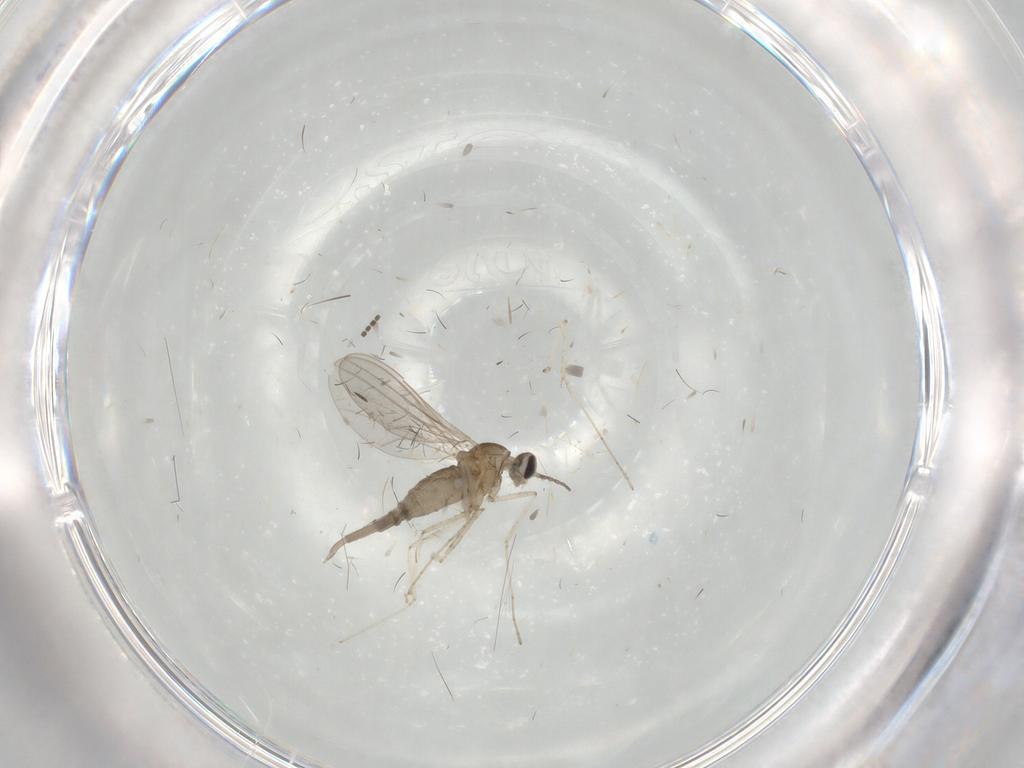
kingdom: Animalia
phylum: Arthropoda
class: Insecta
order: Diptera
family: Cecidomyiidae
